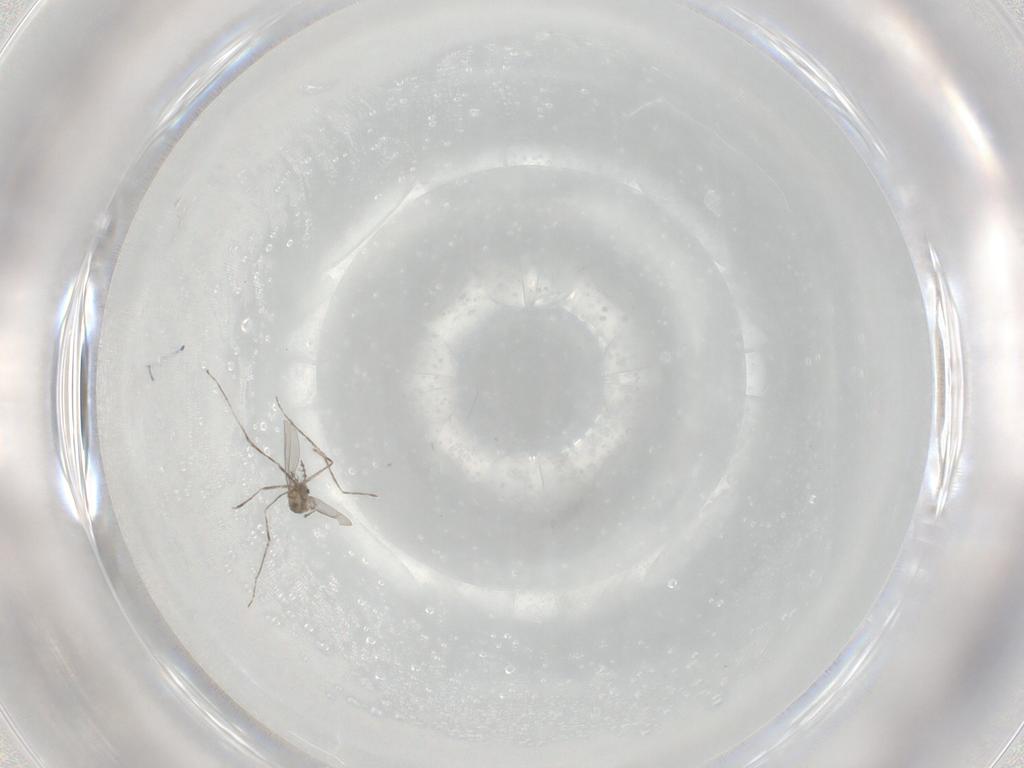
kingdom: Animalia
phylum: Arthropoda
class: Insecta
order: Diptera
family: Cecidomyiidae
